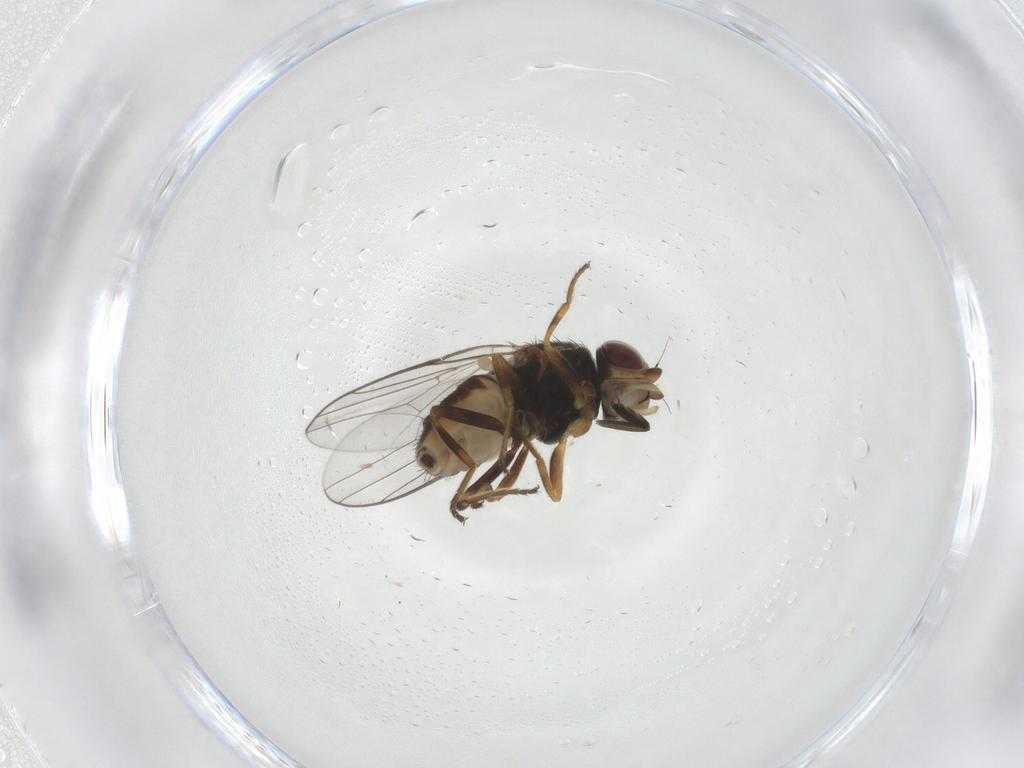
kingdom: Animalia
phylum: Arthropoda
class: Insecta
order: Diptera
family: Chloropidae
